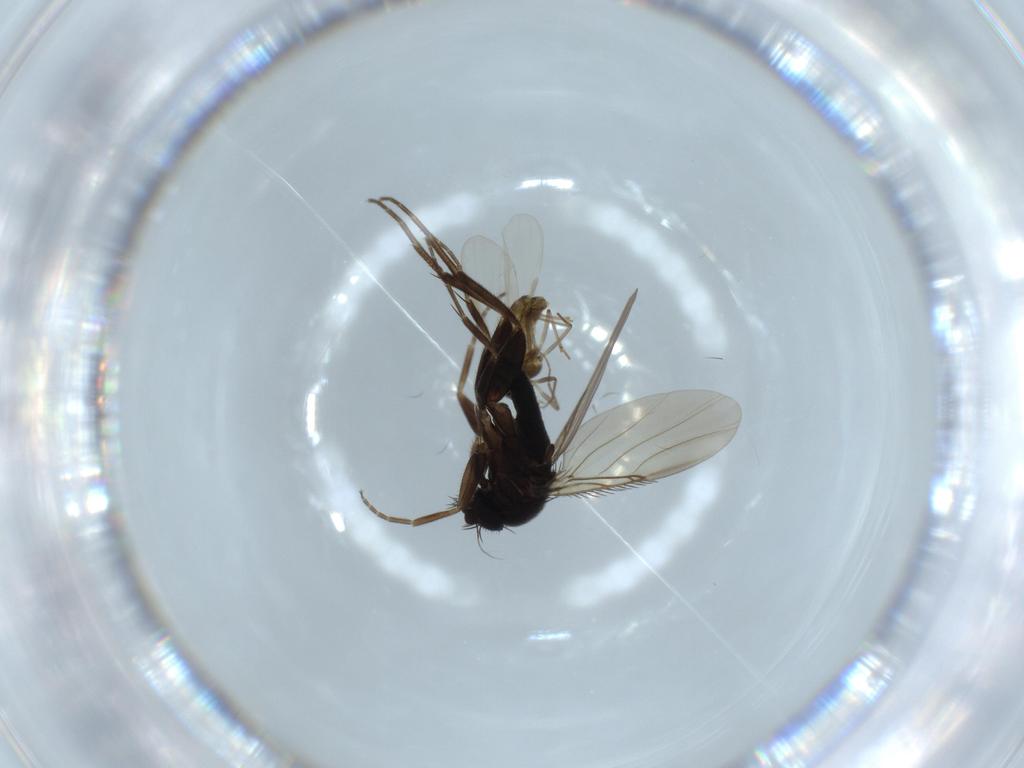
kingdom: Animalia
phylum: Arthropoda
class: Insecta
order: Diptera
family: Phoridae
